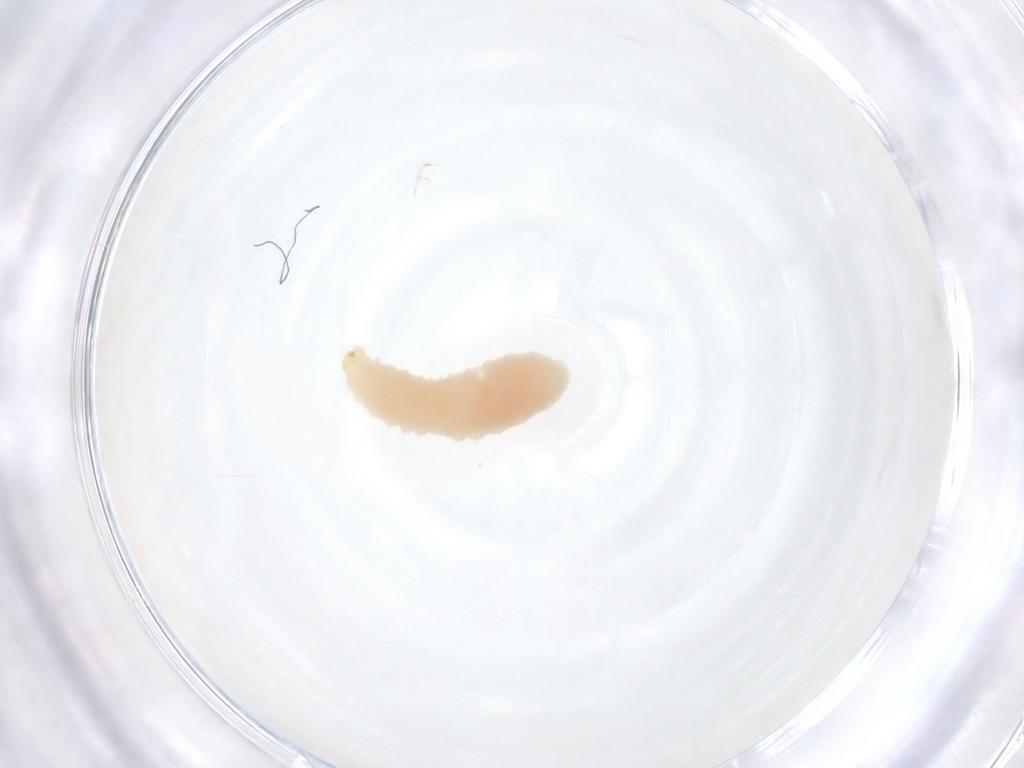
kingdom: Animalia
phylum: Arthropoda
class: Insecta
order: Hemiptera
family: Cicadellidae
